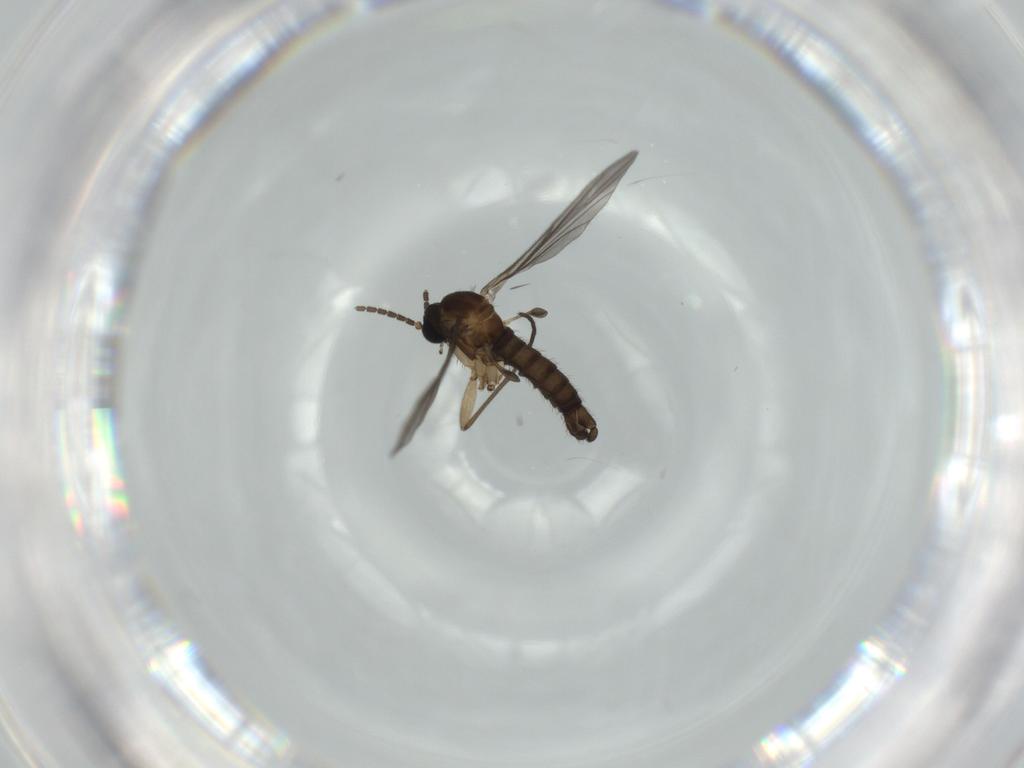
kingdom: Animalia
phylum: Arthropoda
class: Insecta
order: Diptera
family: Sciaridae
